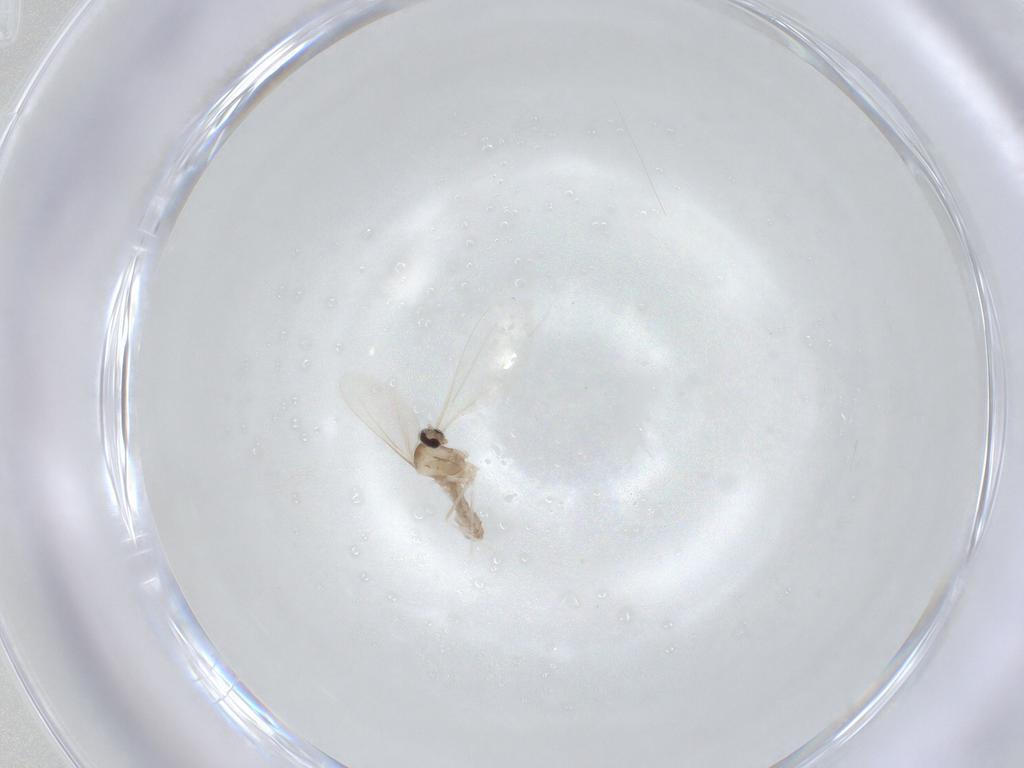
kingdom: Animalia
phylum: Arthropoda
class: Insecta
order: Diptera
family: Cecidomyiidae
